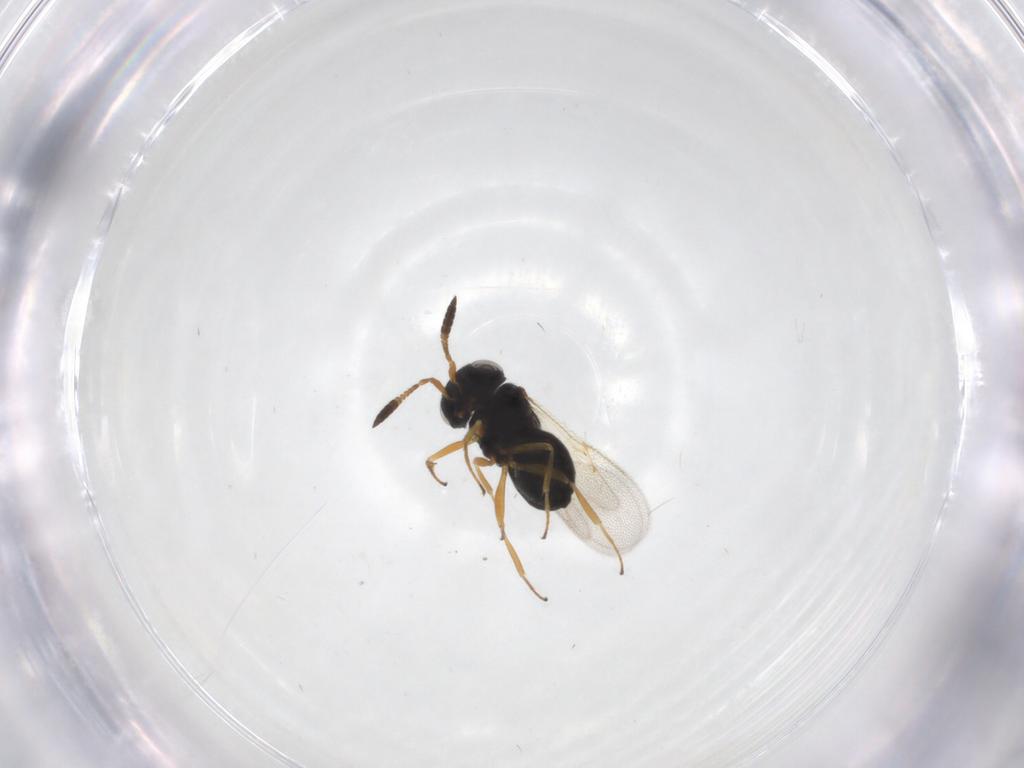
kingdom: Animalia
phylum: Arthropoda
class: Insecta
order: Hymenoptera
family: Scelionidae
